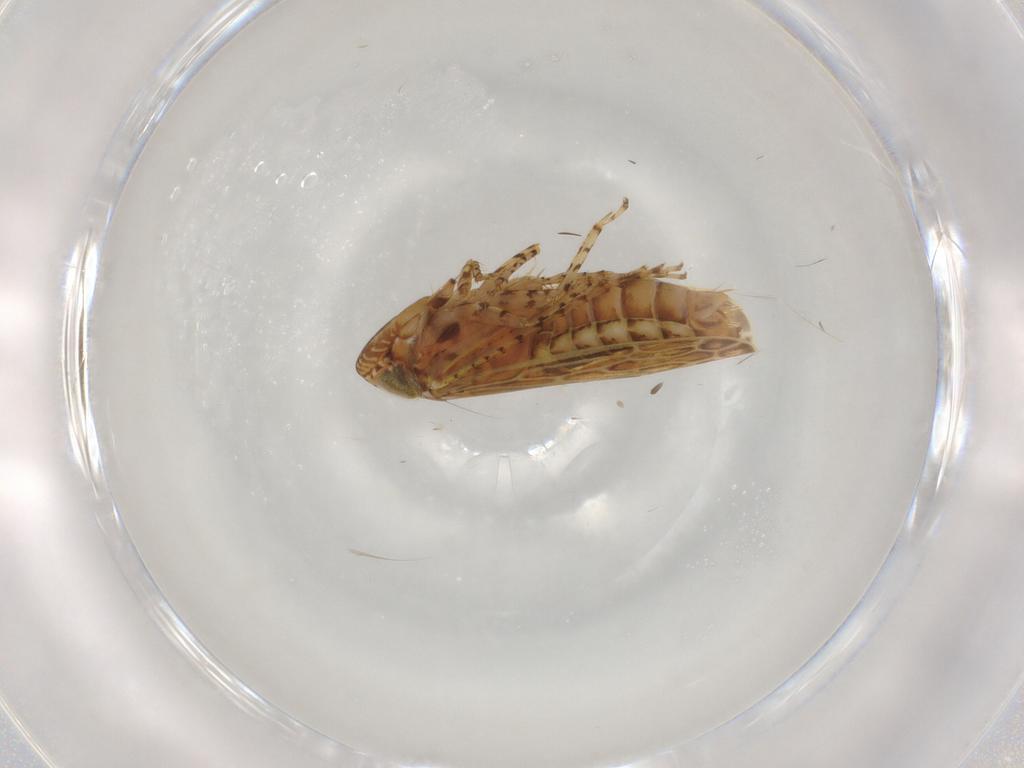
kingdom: Animalia
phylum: Arthropoda
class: Insecta
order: Hemiptera
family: Cicadellidae
